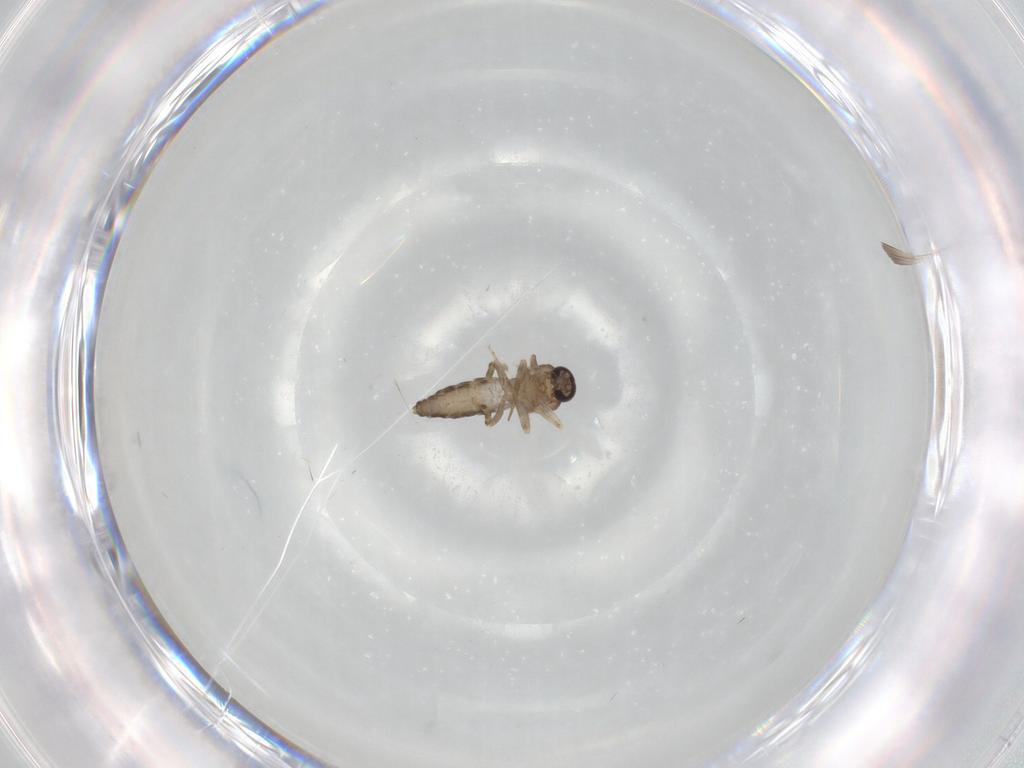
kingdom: Animalia
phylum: Arthropoda
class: Insecta
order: Diptera
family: Ceratopogonidae
